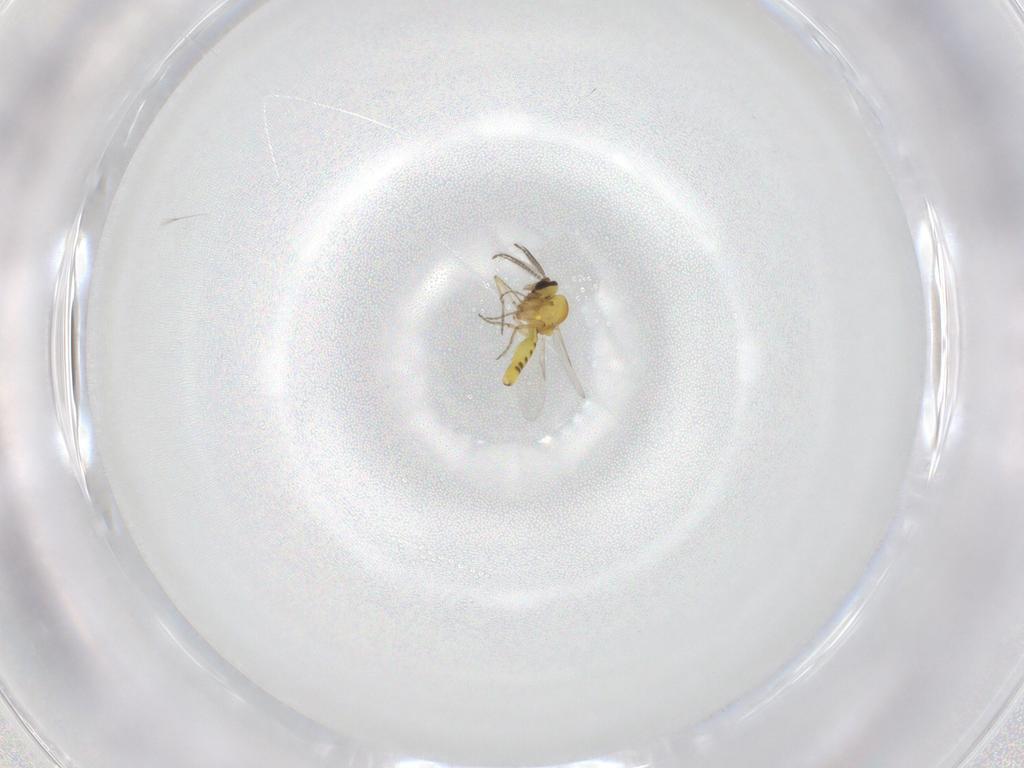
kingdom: Animalia
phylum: Arthropoda
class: Insecta
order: Diptera
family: Ceratopogonidae
